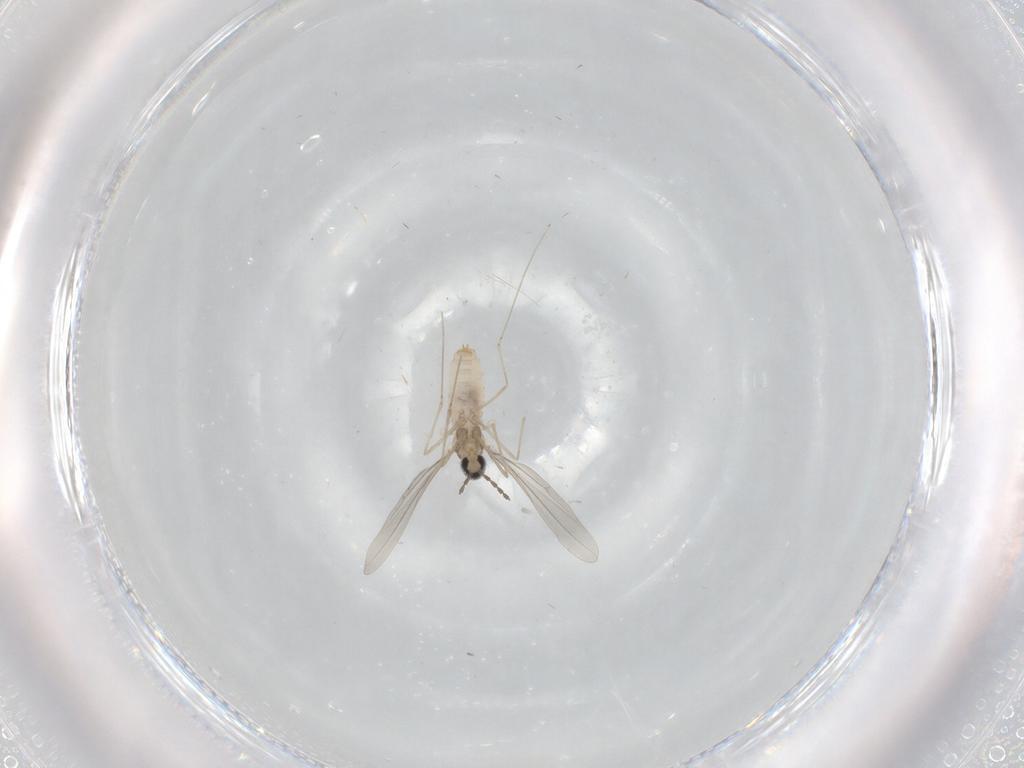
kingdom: Animalia
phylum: Arthropoda
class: Insecta
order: Diptera
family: Cecidomyiidae
